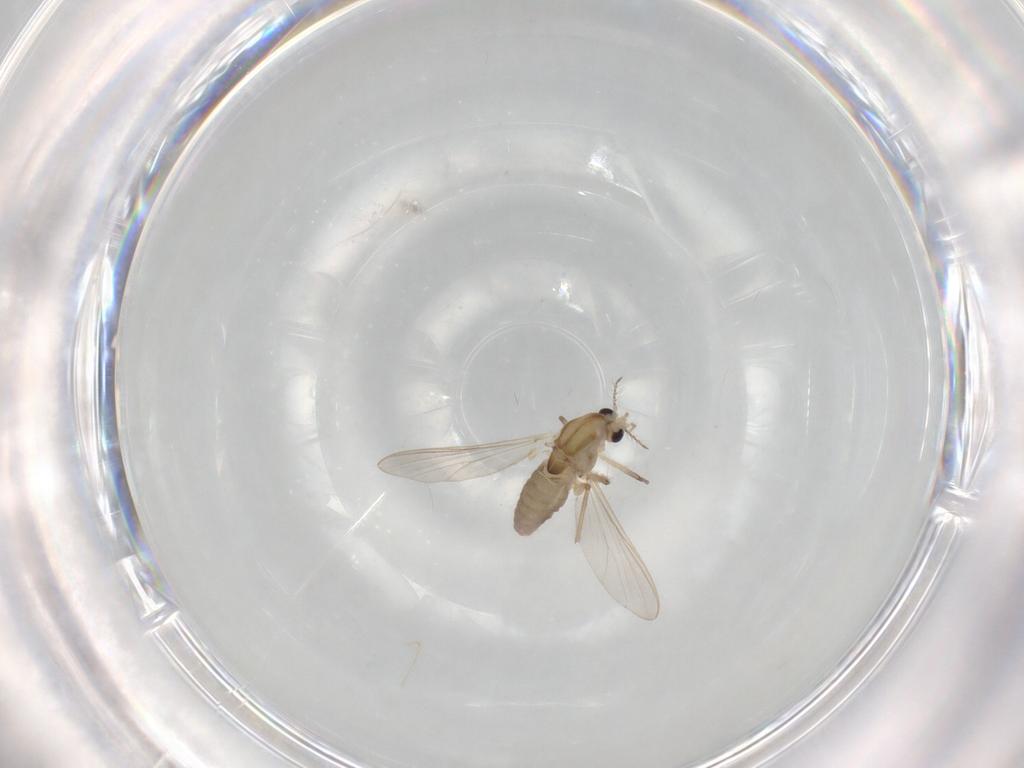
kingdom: Animalia
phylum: Arthropoda
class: Insecta
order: Diptera
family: Chironomidae
